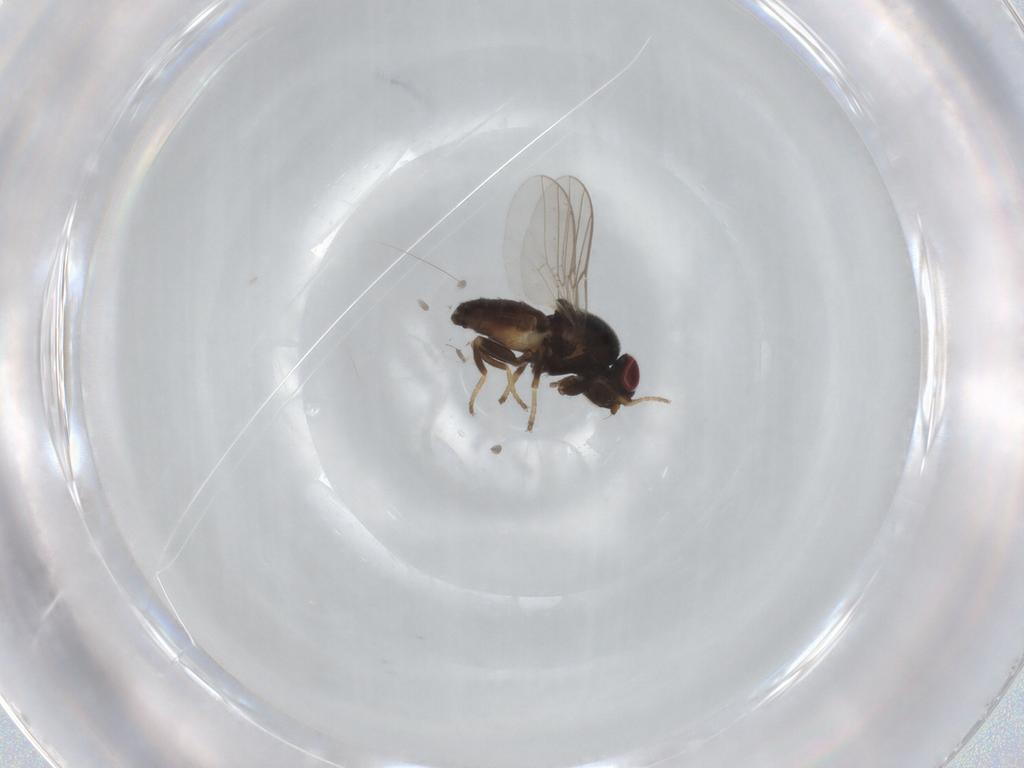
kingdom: Animalia
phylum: Arthropoda
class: Insecta
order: Diptera
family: Chloropidae
